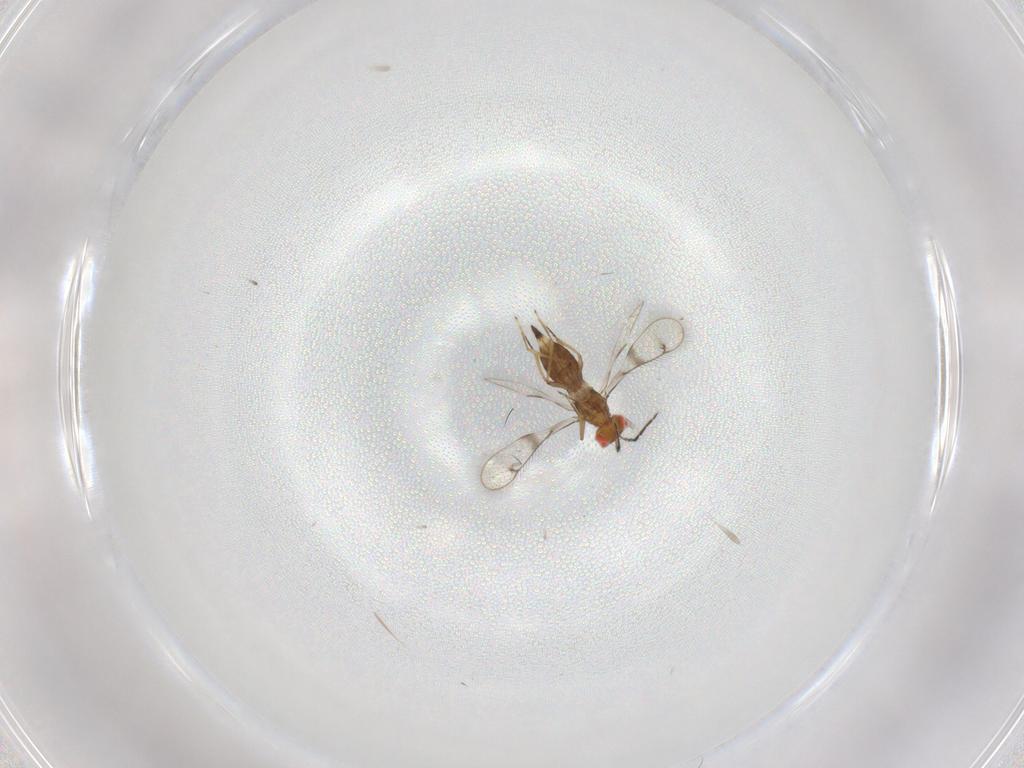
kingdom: Animalia
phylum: Arthropoda
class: Insecta
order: Hymenoptera
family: Eulophidae
